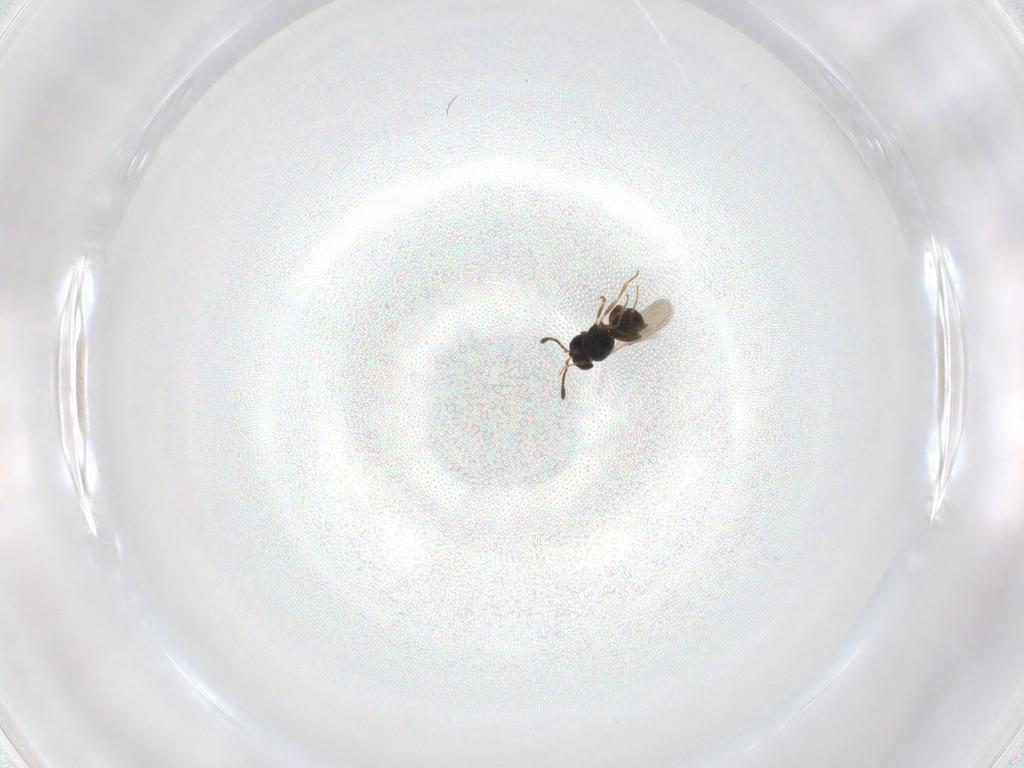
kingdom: Animalia
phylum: Arthropoda
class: Insecta
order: Hymenoptera
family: Scelionidae
